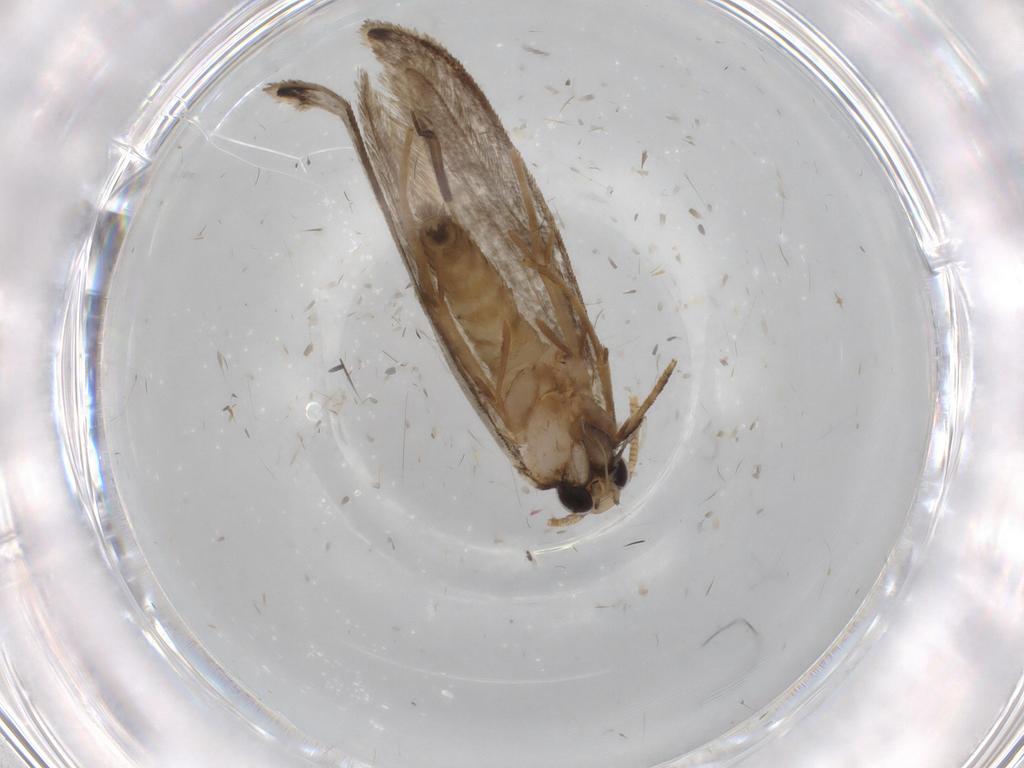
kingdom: Animalia
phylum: Arthropoda
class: Insecta
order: Lepidoptera
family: Tineidae
